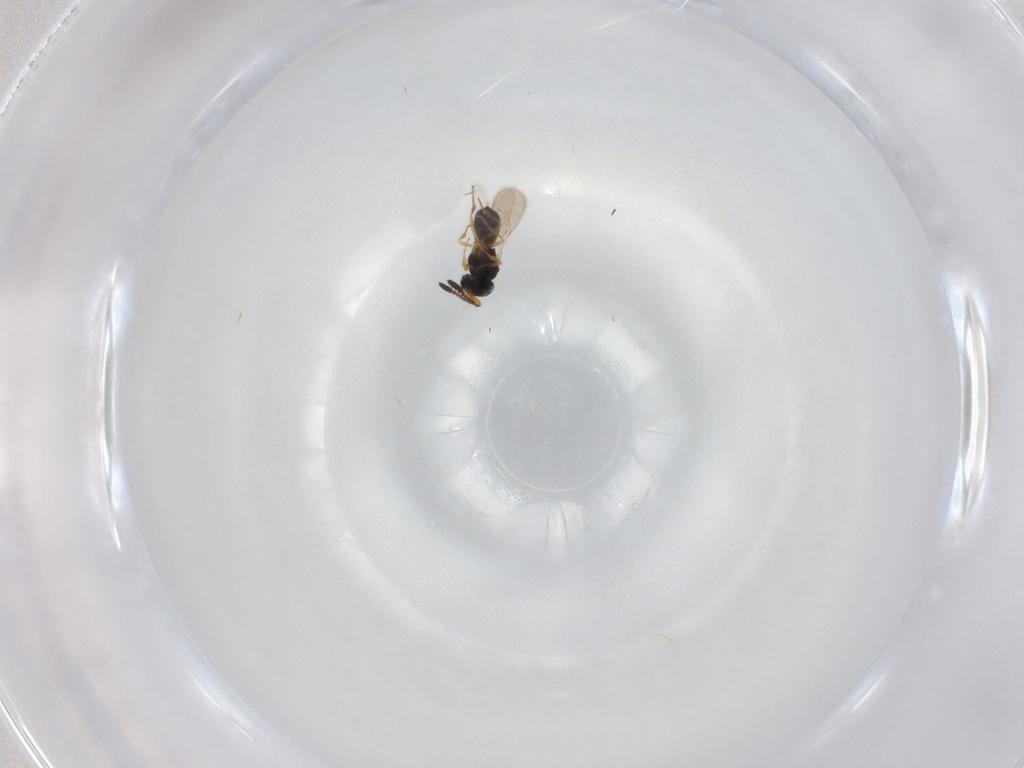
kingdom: Animalia
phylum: Arthropoda
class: Insecta
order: Hymenoptera
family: Scelionidae
